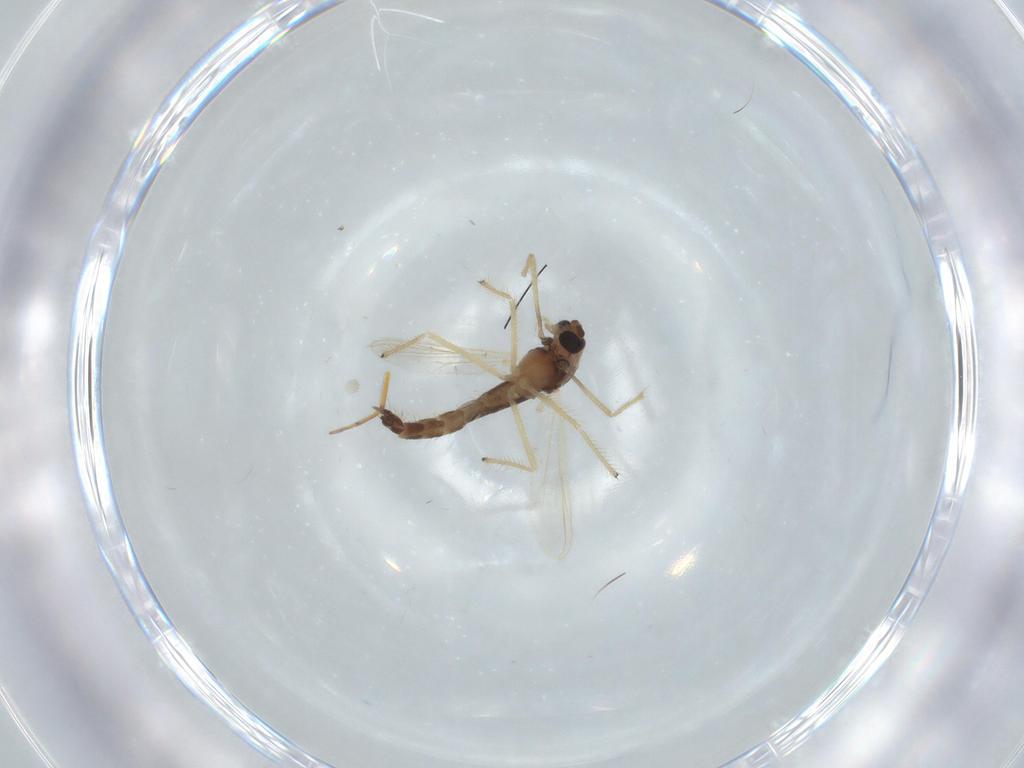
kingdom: Animalia
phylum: Arthropoda
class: Insecta
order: Diptera
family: Chironomidae
